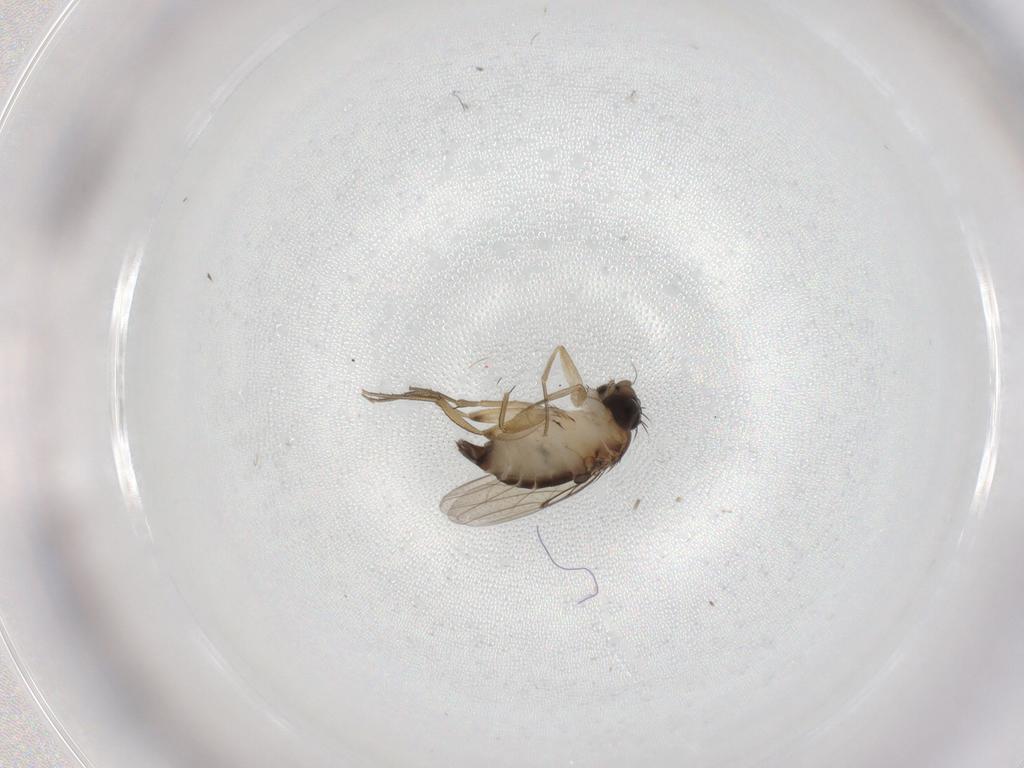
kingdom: Animalia
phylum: Arthropoda
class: Insecta
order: Diptera
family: Phoridae
